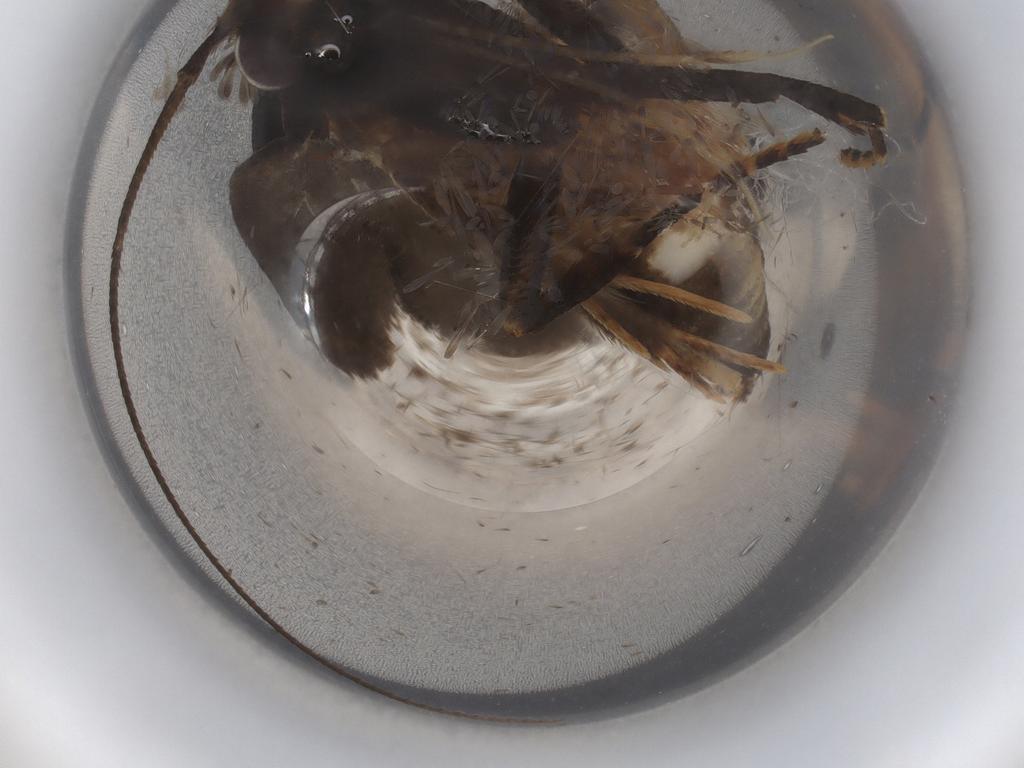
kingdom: Animalia
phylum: Arthropoda
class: Insecta
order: Lepidoptera
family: Gelechiidae
